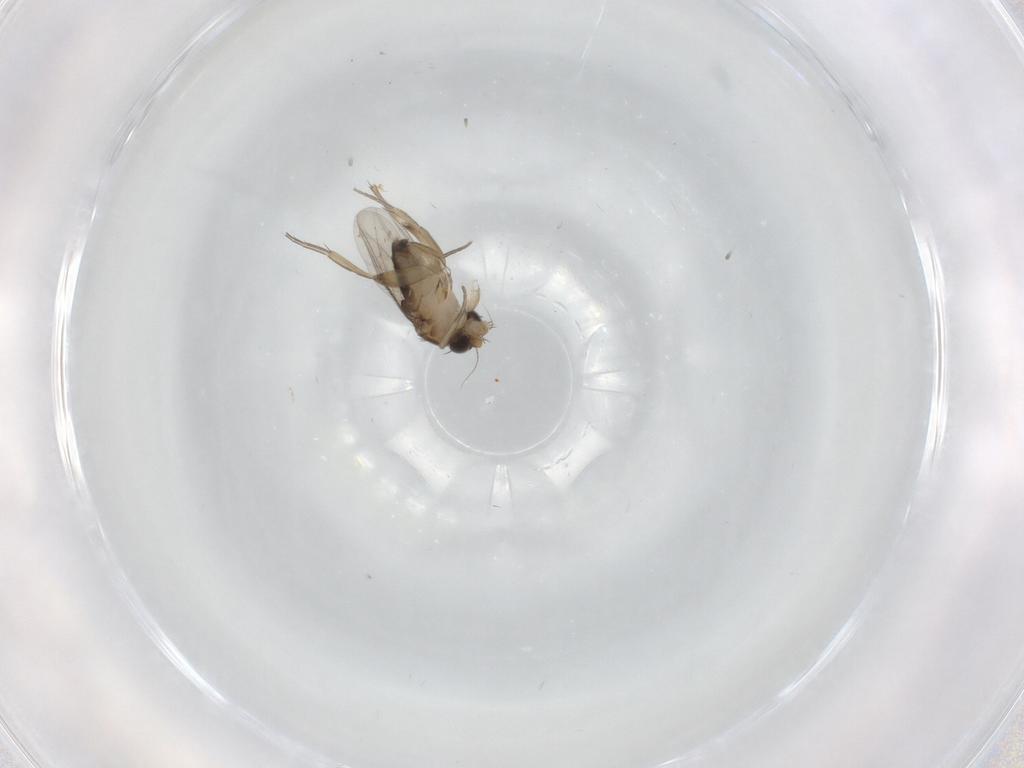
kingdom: Animalia
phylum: Arthropoda
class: Insecta
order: Diptera
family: Phoridae
